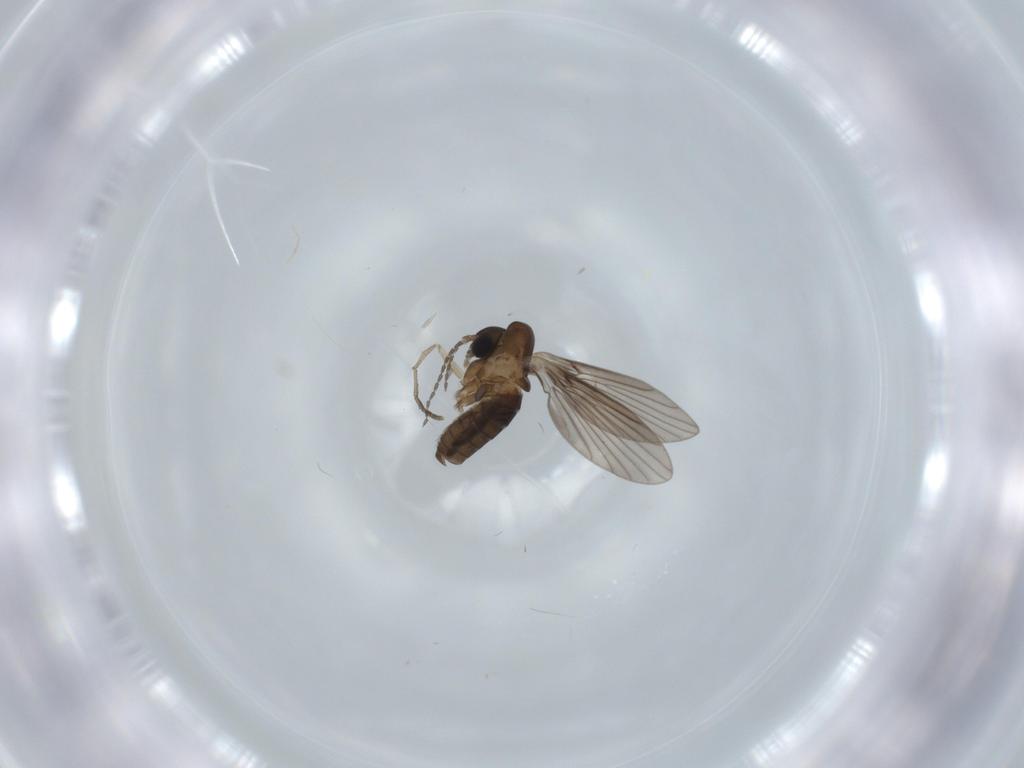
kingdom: Animalia
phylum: Arthropoda
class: Insecta
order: Diptera
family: Psychodidae
